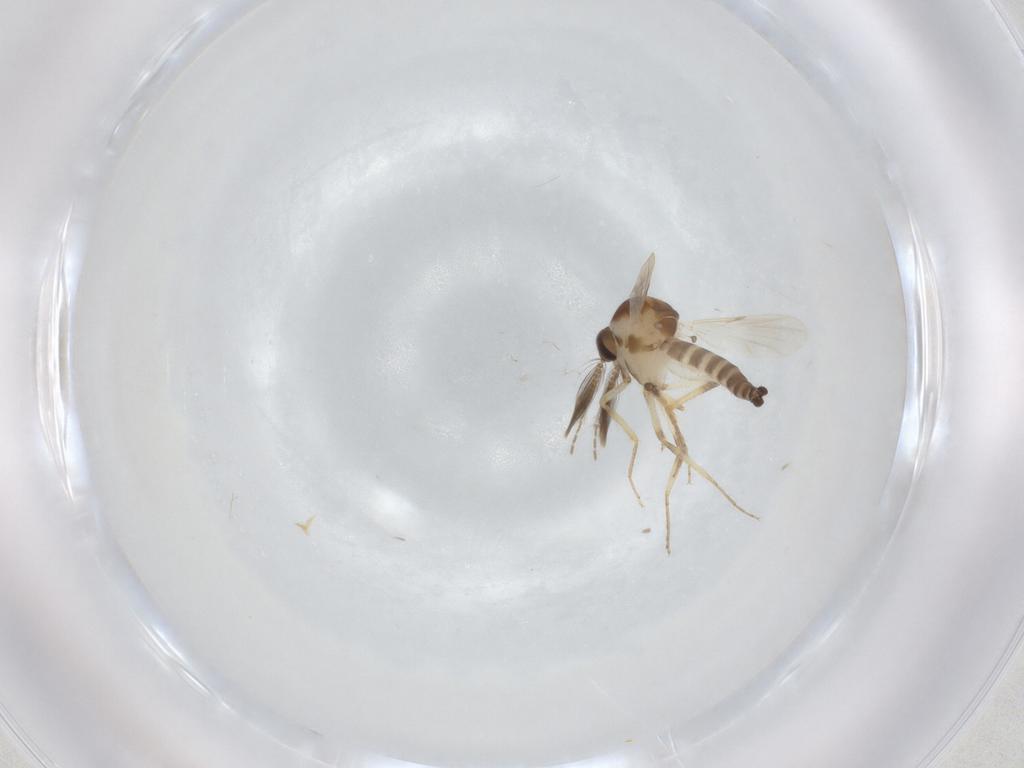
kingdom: Animalia
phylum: Arthropoda
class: Insecta
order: Diptera
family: Ceratopogonidae
